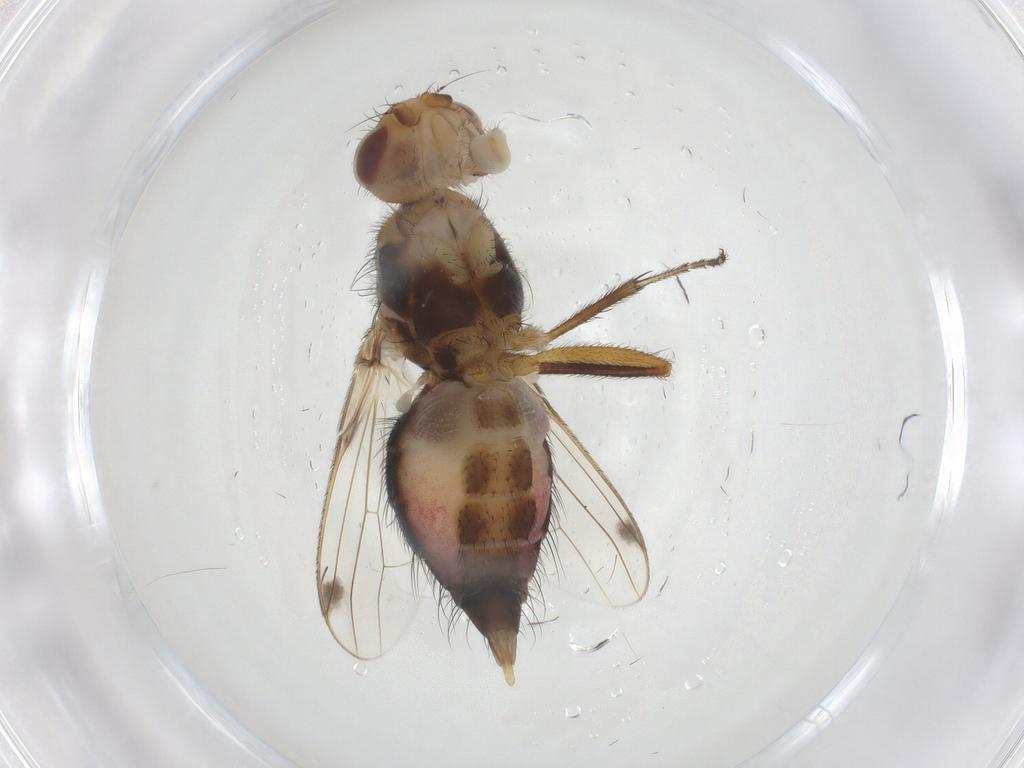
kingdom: Animalia
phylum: Arthropoda
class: Insecta
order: Diptera
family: Richardiidae
